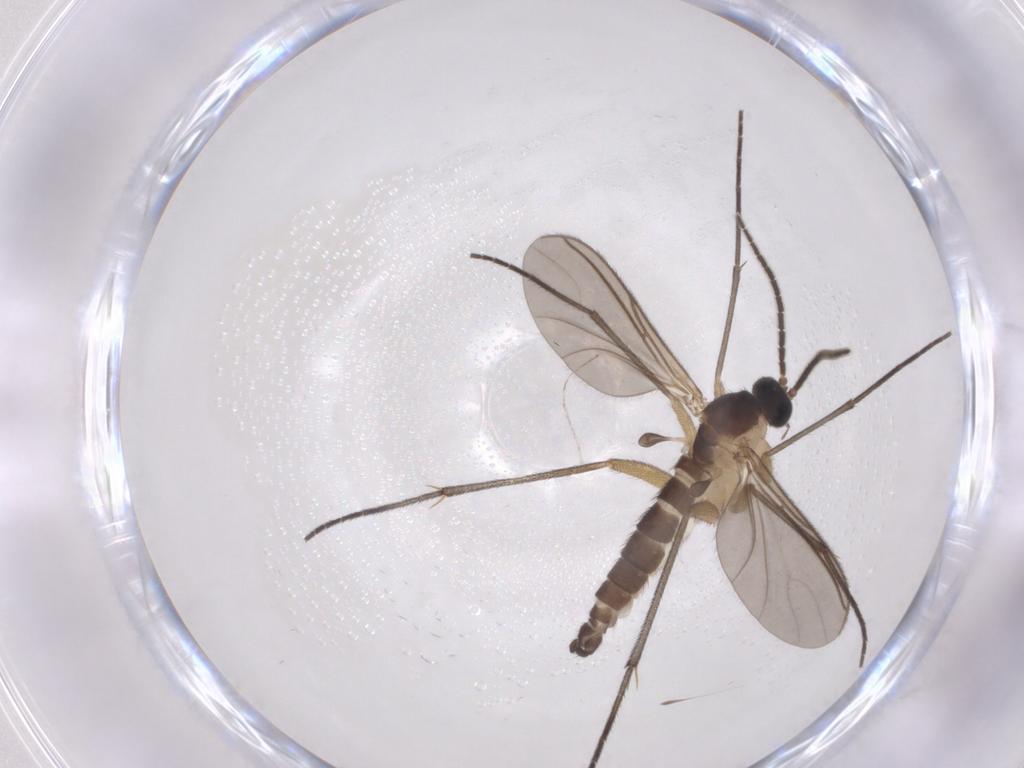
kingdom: Animalia
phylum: Arthropoda
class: Insecta
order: Diptera
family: Sciaridae
